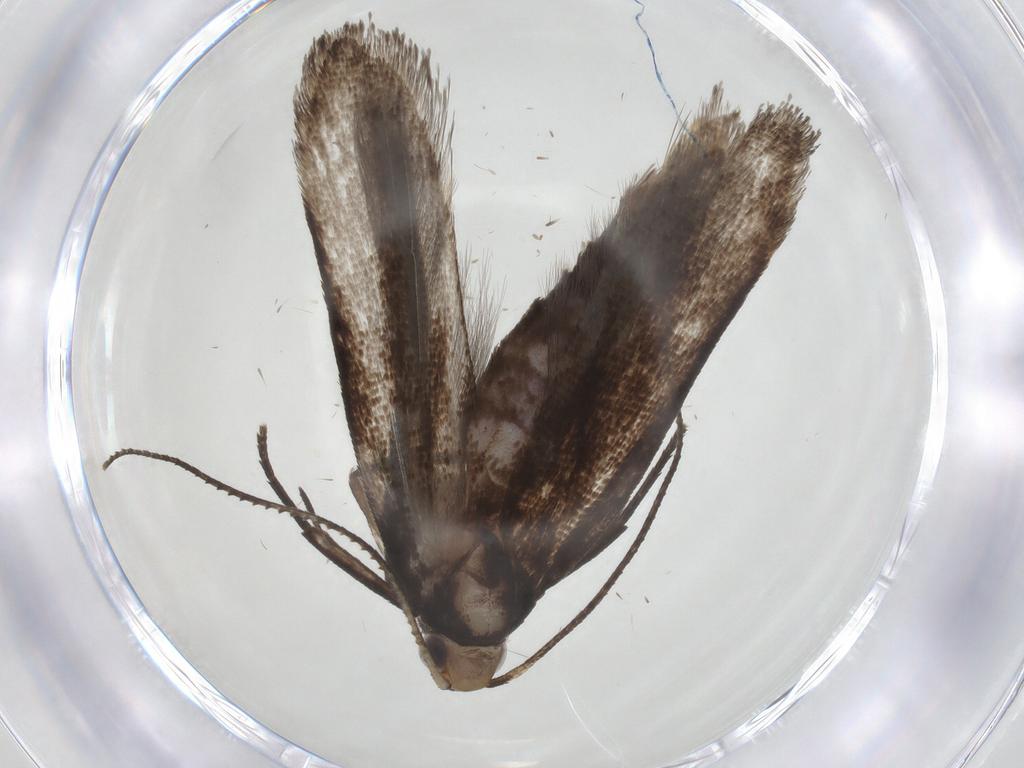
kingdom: Animalia
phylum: Arthropoda
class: Insecta
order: Lepidoptera
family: Gelechiidae
